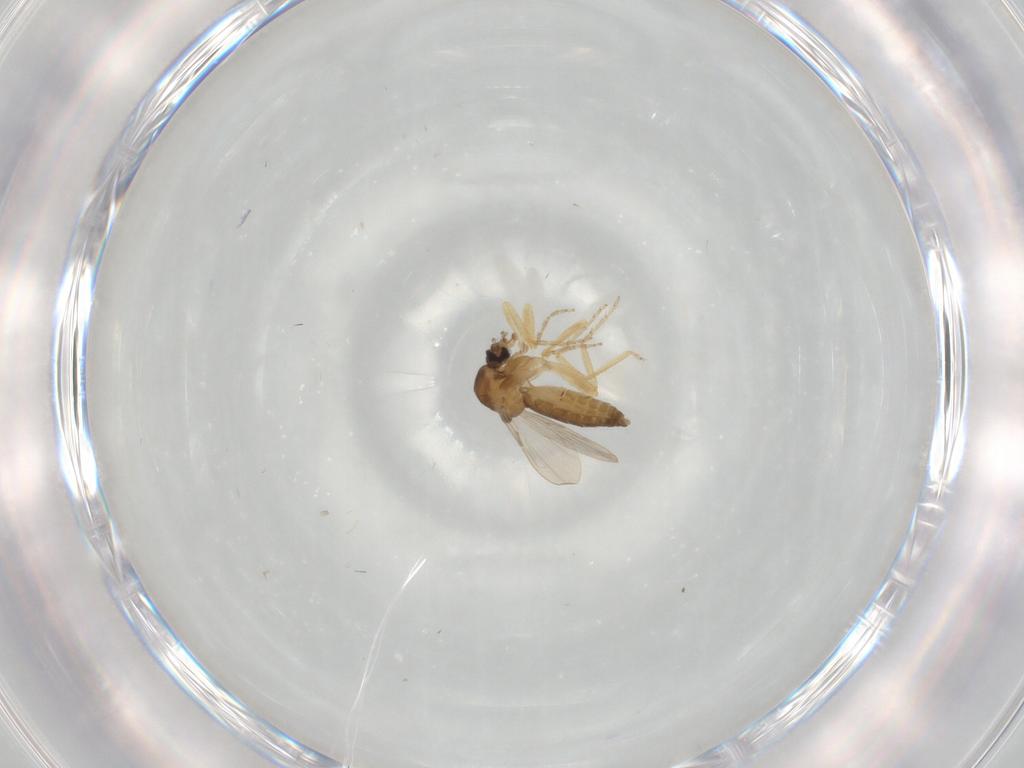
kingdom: Animalia
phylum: Arthropoda
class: Insecta
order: Diptera
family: Ceratopogonidae
